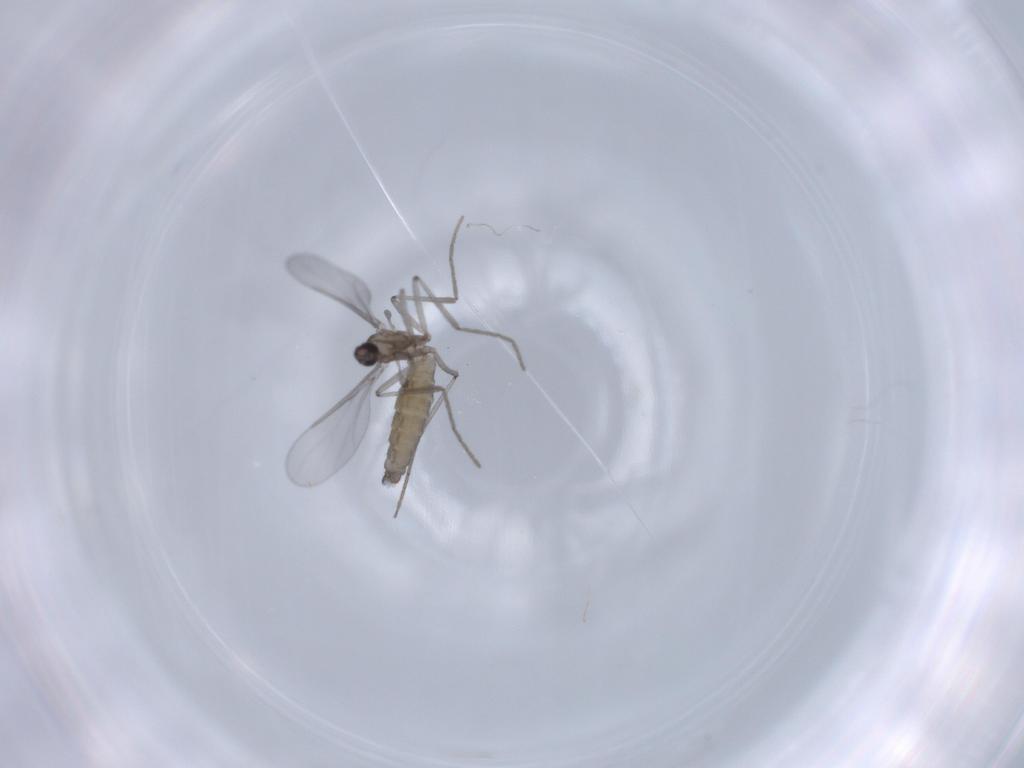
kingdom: Animalia
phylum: Arthropoda
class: Insecta
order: Diptera
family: Cecidomyiidae
